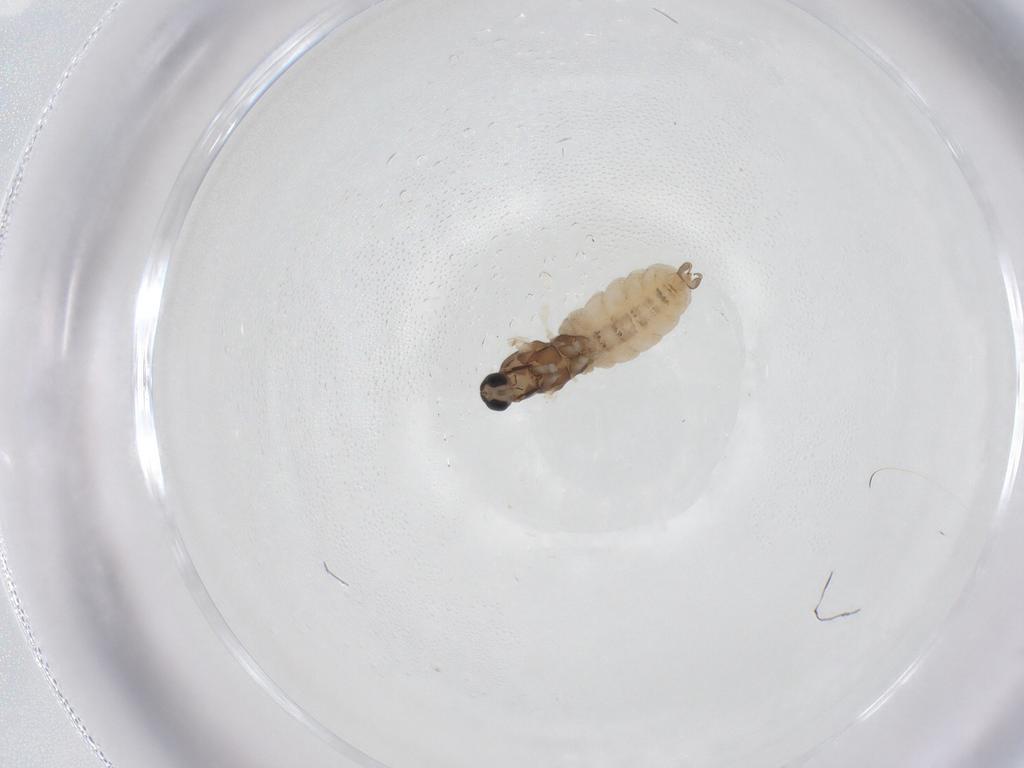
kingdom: Animalia
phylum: Arthropoda
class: Insecta
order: Diptera
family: Cecidomyiidae
